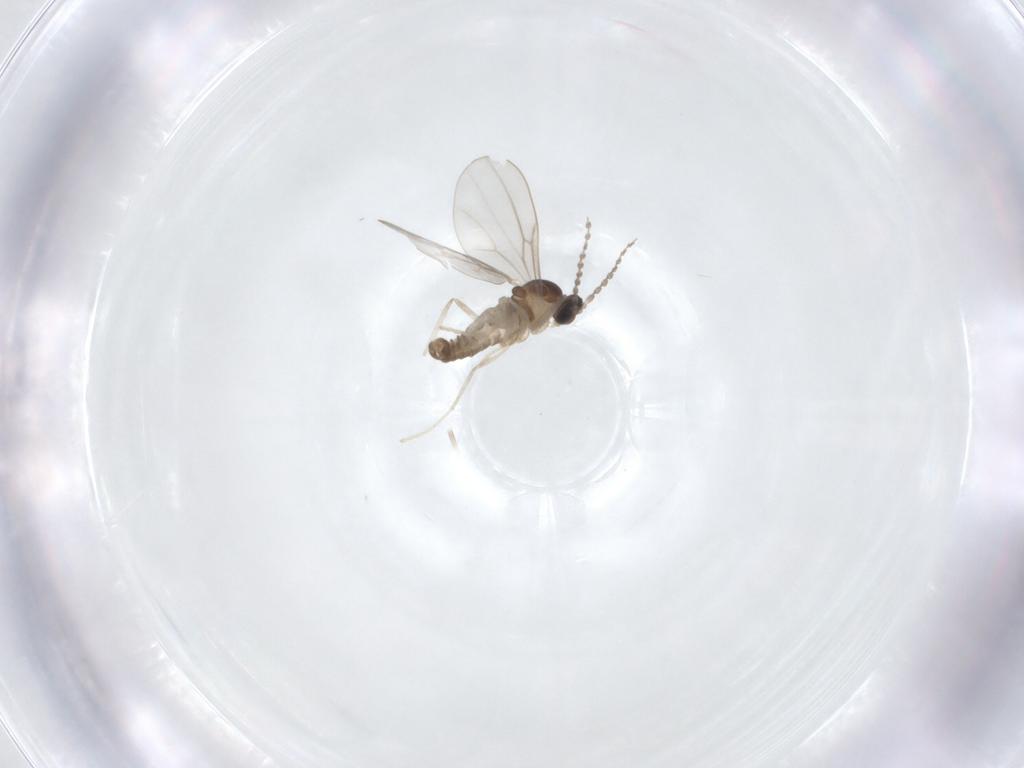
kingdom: Animalia
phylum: Arthropoda
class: Insecta
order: Diptera
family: Cecidomyiidae
